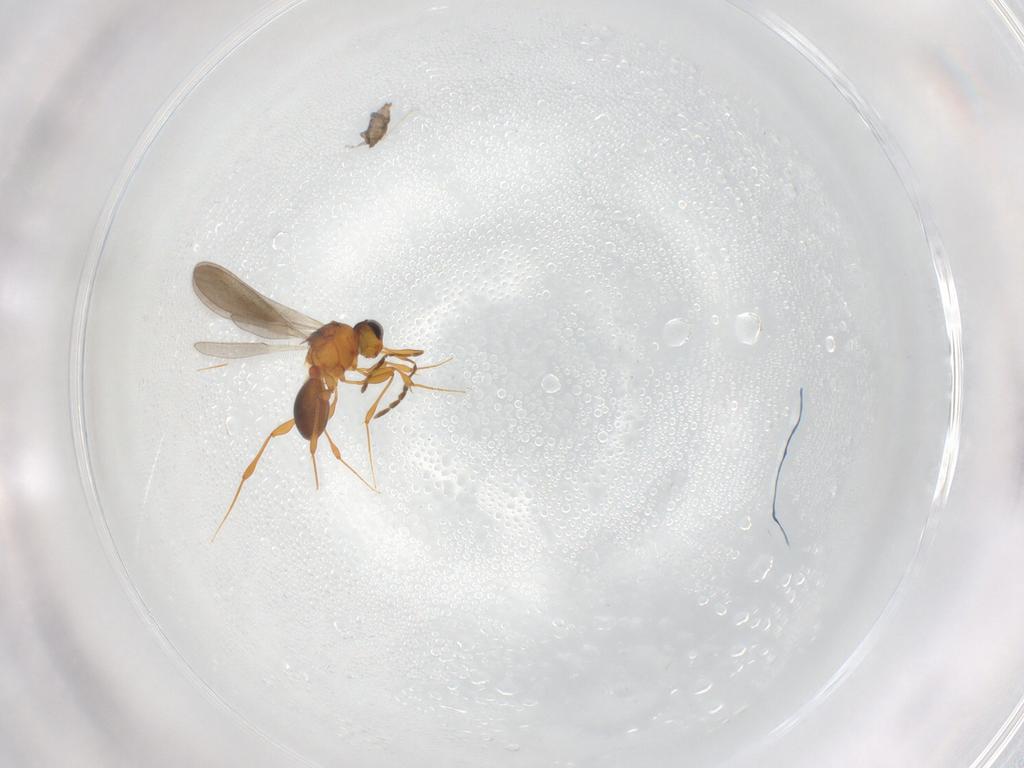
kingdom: Animalia
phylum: Arthropoda
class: Insecta
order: Hymenoptera
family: Platygastridae
